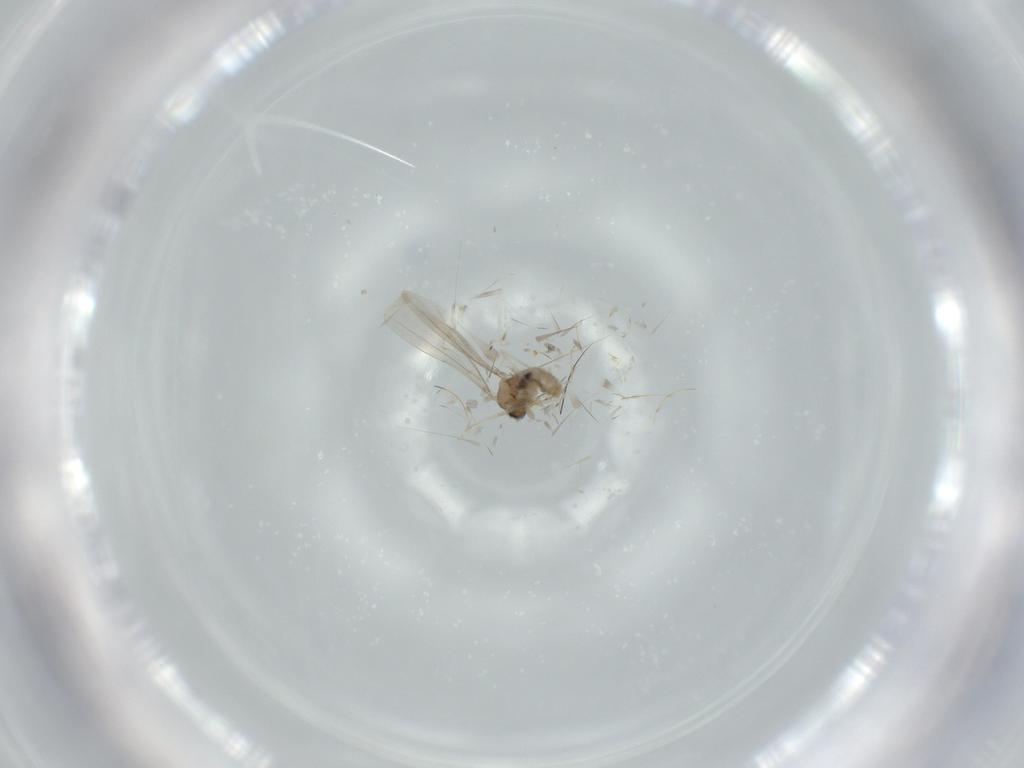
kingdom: Animalia
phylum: Arthropoda
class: Insecta
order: Diptera
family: Cecidomyiidae
